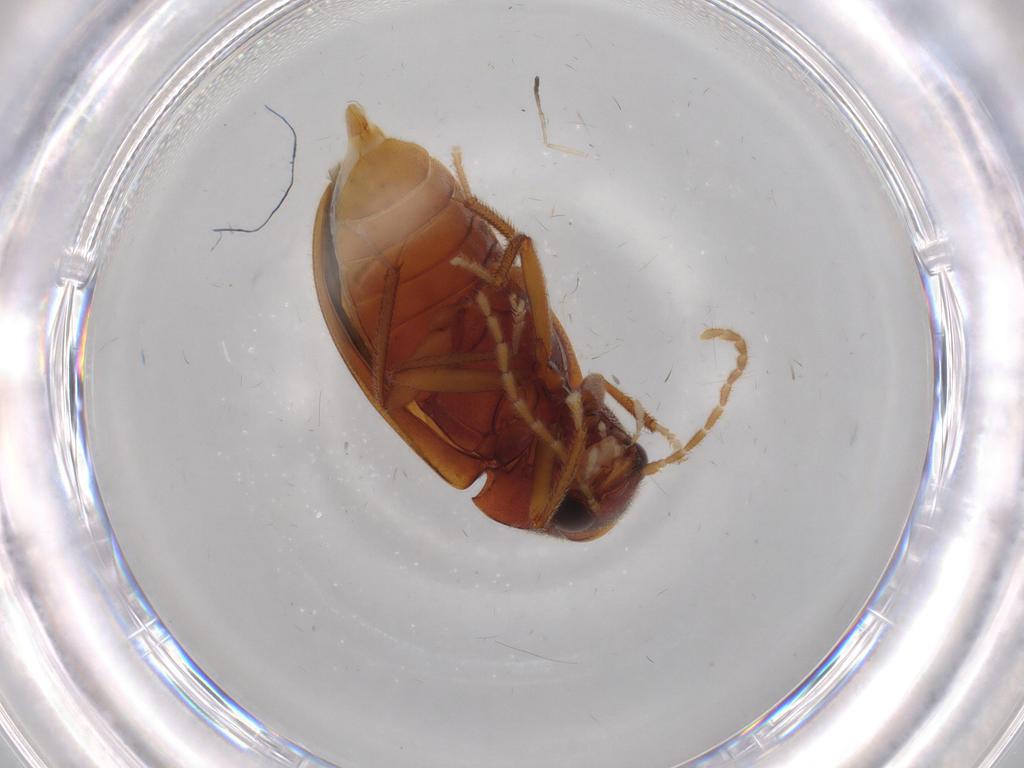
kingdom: Animalia
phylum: Arthropoda
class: Insecta
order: Coleoptera
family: Ptilodactylidae
